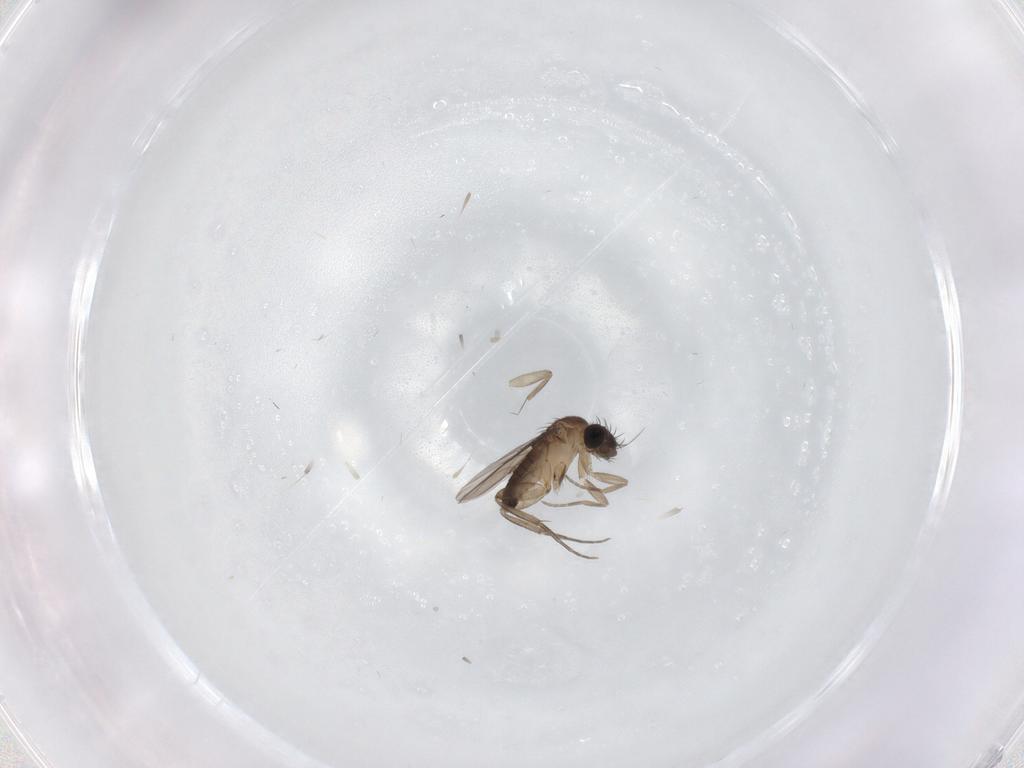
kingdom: Animalia
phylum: Arthropoda
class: Insecta
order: Diptera
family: Phoridae
